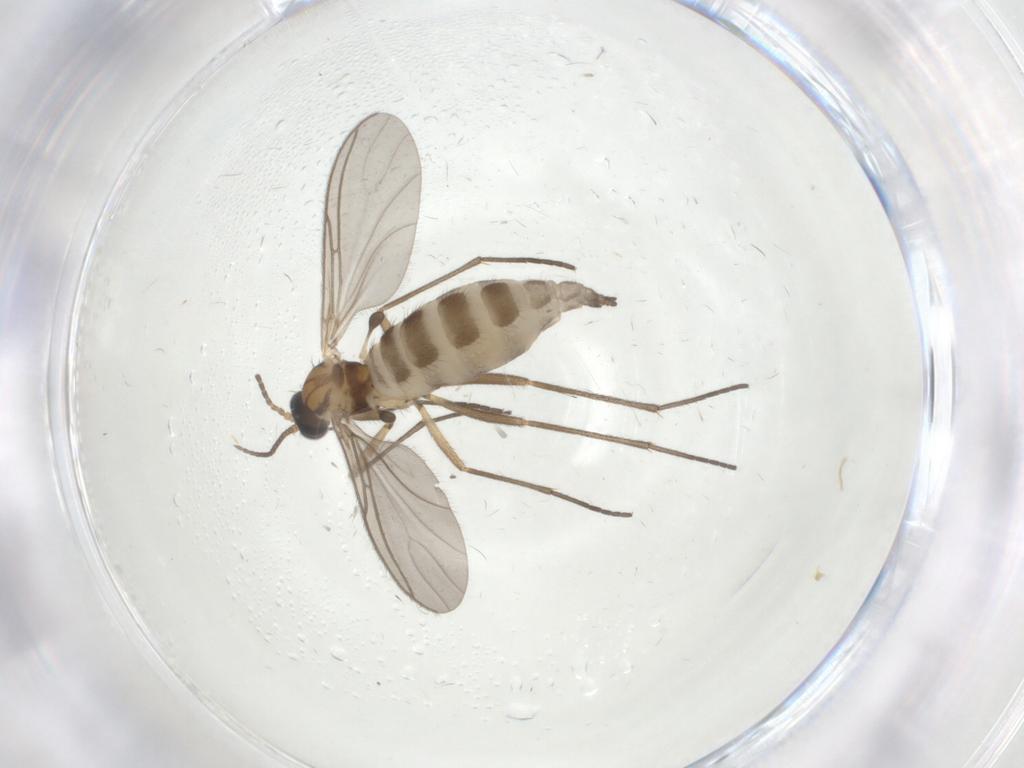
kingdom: Animalia
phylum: Arthropoda
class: Insecta
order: Diptera
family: Sciaridae
